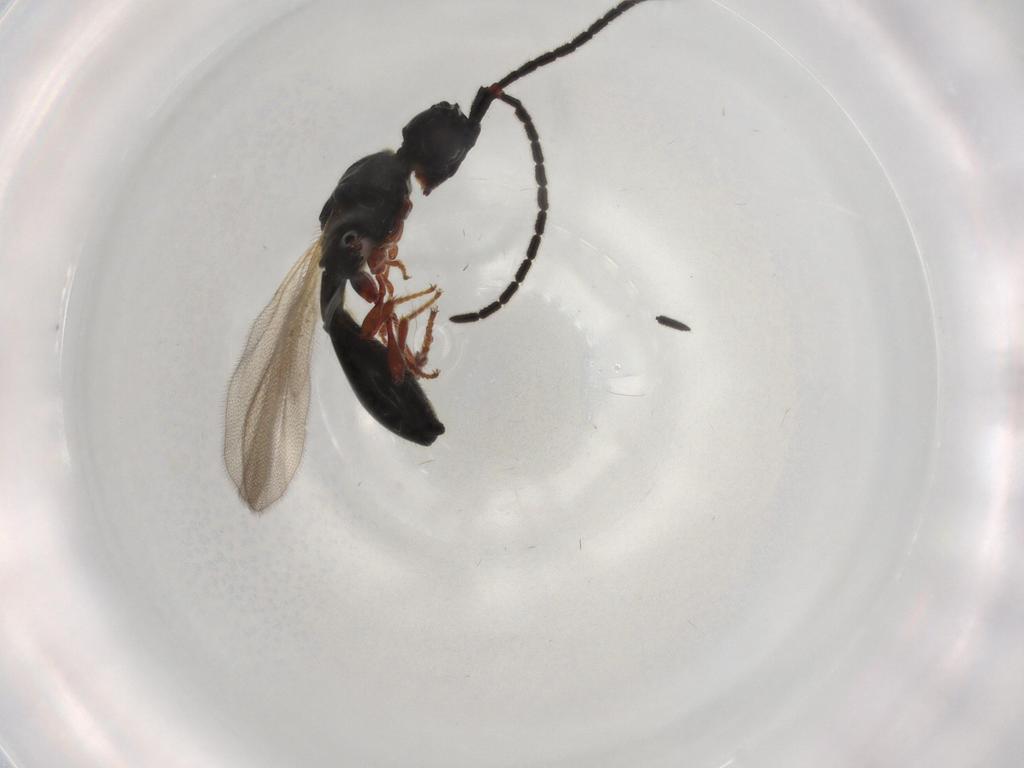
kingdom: Animalia
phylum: Arthropoda
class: Insecta
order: Hymenoptera
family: Diapriidae
